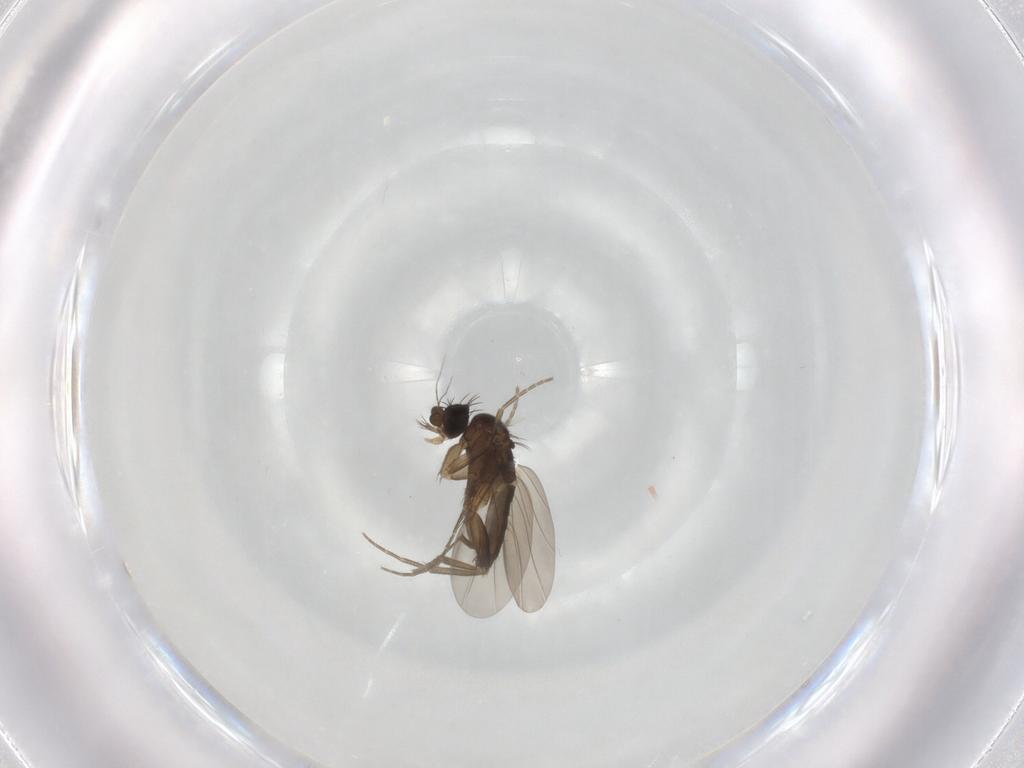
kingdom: Animalia
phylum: Arthropoda
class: Insecta
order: Diptera
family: Phoridae
